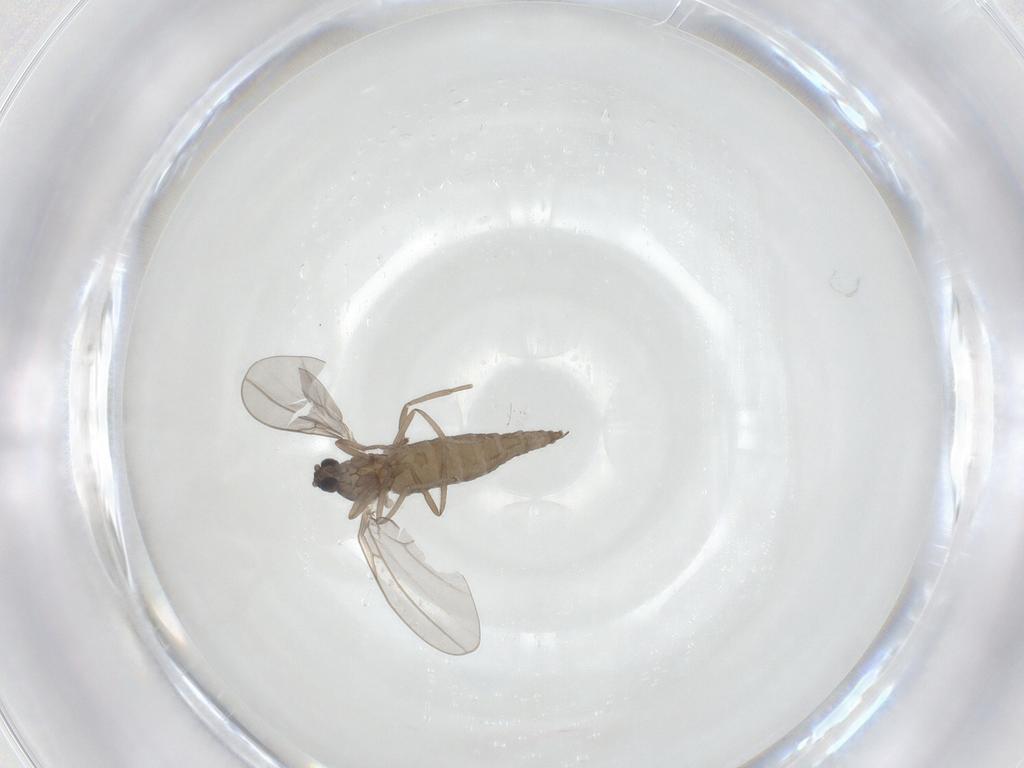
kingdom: Animalia
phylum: Arthropoda
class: Insecta
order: Diptera
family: Cecidomyiidae
